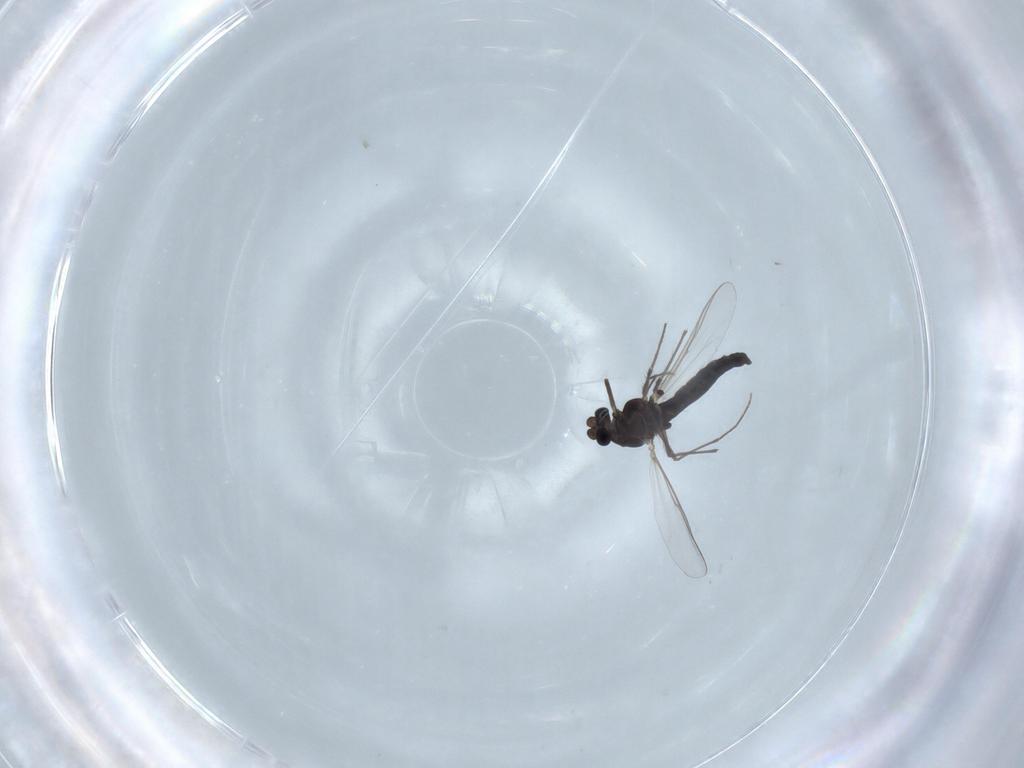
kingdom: Animalia
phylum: Arthropoda
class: Insecta
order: Diptera
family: Chironomidae
